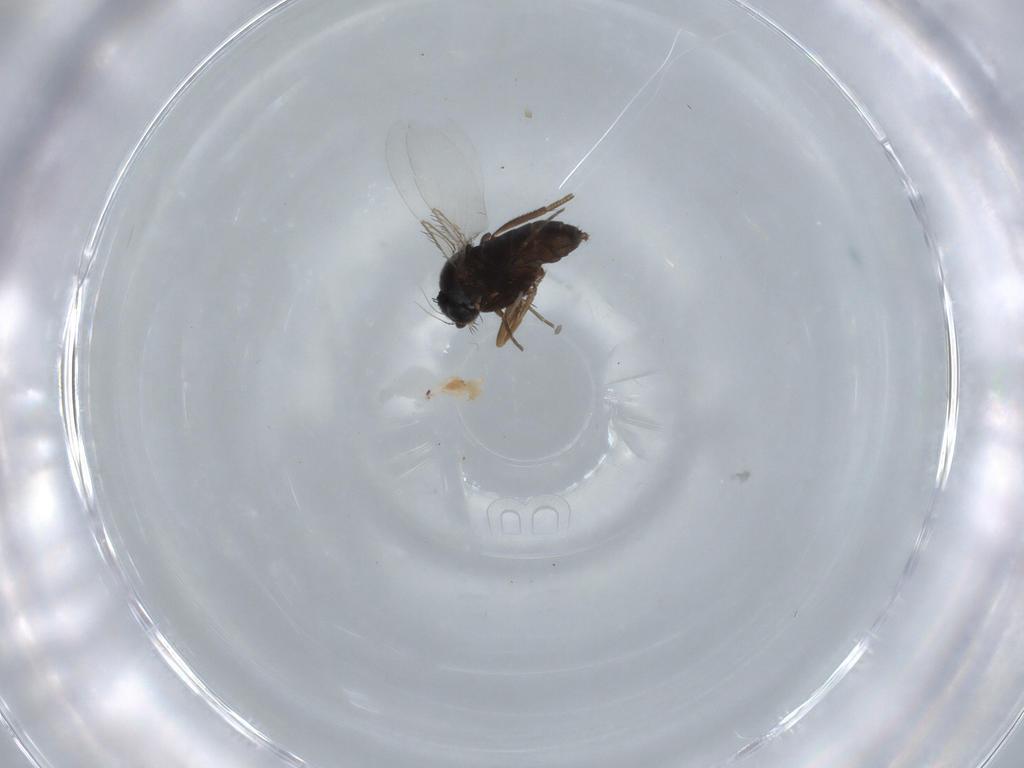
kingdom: Animalia
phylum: Arthropoda
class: Insecta
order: Diptera
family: Phoridae
